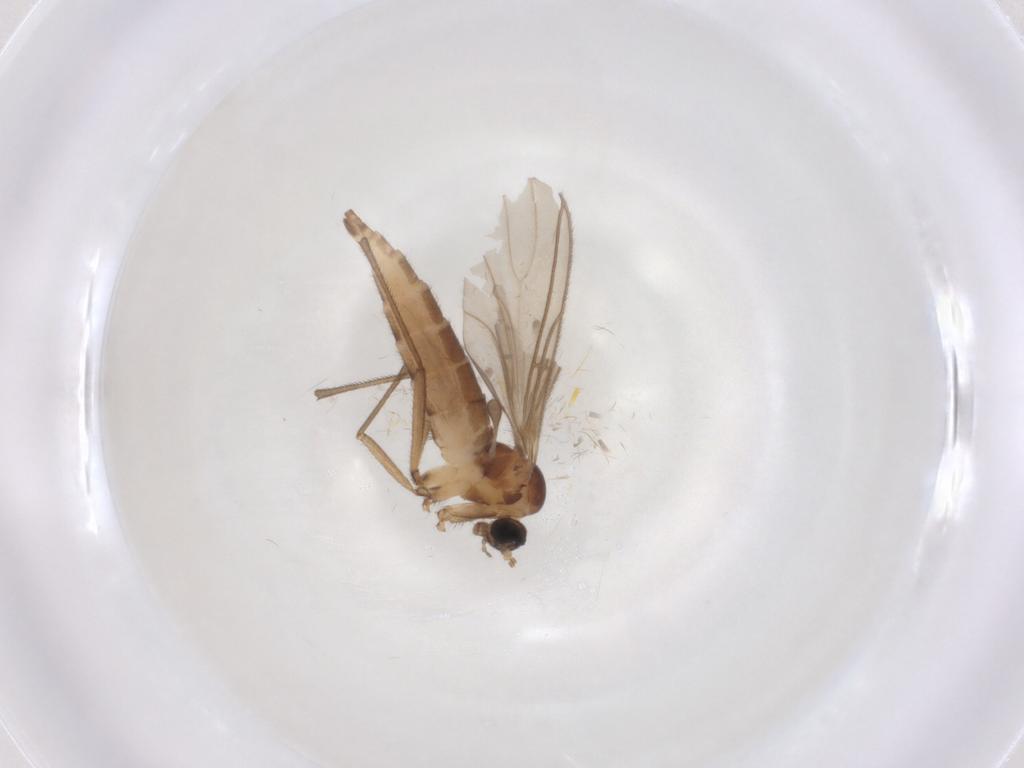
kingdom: Animalia
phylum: Arthropoda
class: Insecta
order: Diptera
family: Sciaridae
